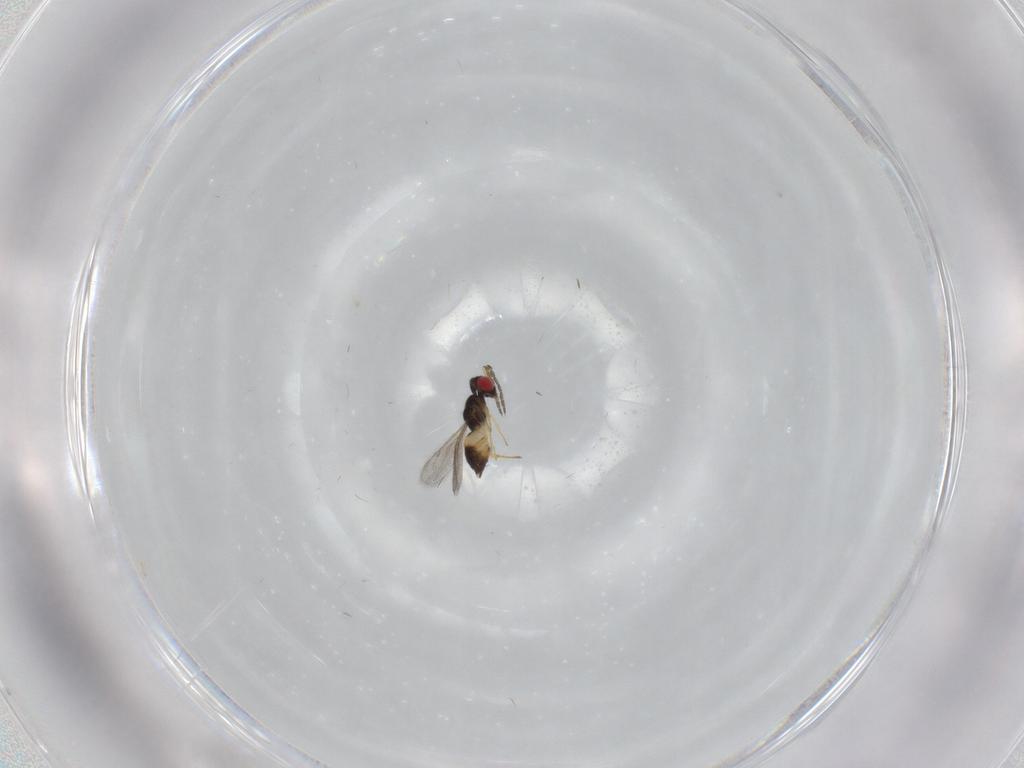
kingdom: Animalia
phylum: Arthropoda
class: Insecta
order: Hymenoptera
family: Eulophidae
